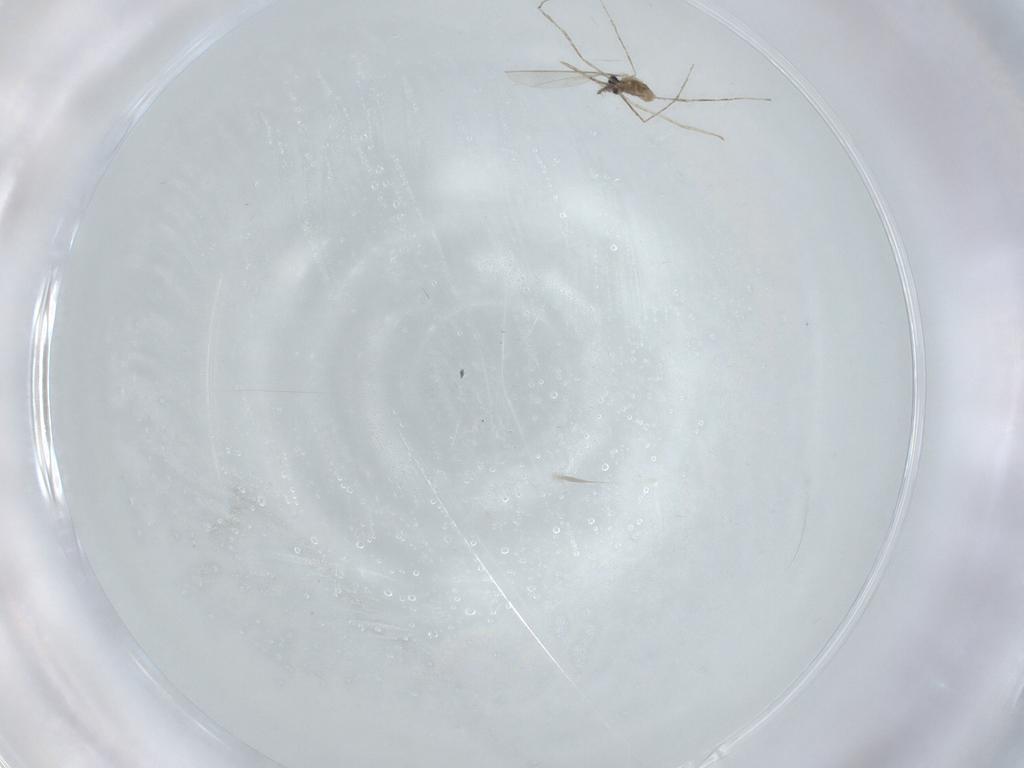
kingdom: Animalia
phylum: Arthropoda
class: Insecta
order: Diptera
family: Cecidomyiidae
